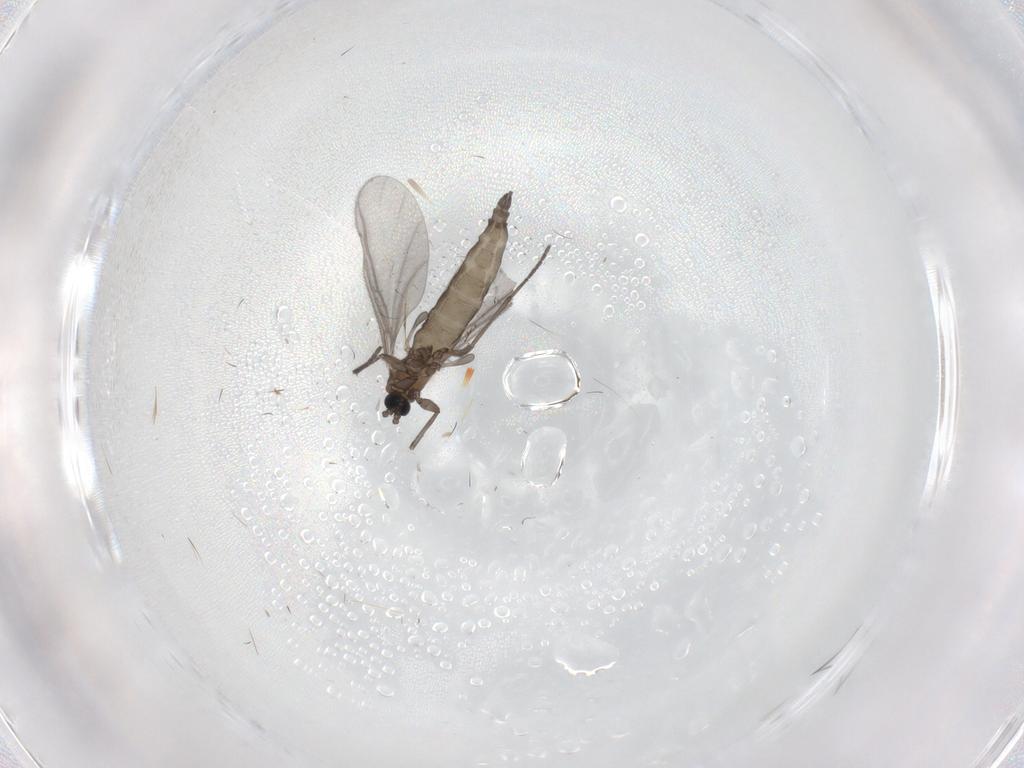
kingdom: Animalia
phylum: Arthropoda
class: Insecta
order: Diptera
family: Sciaridae
